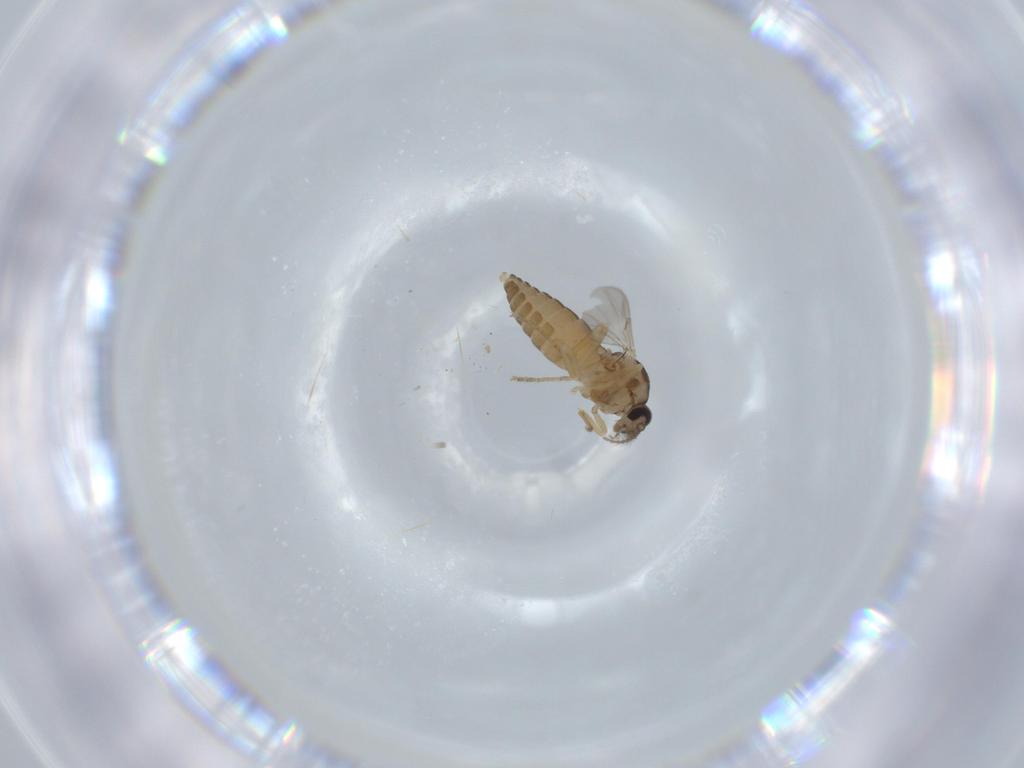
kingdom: Animalia
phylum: Arthropoda
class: Insecta
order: Diptera
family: Ceratopogonidae
